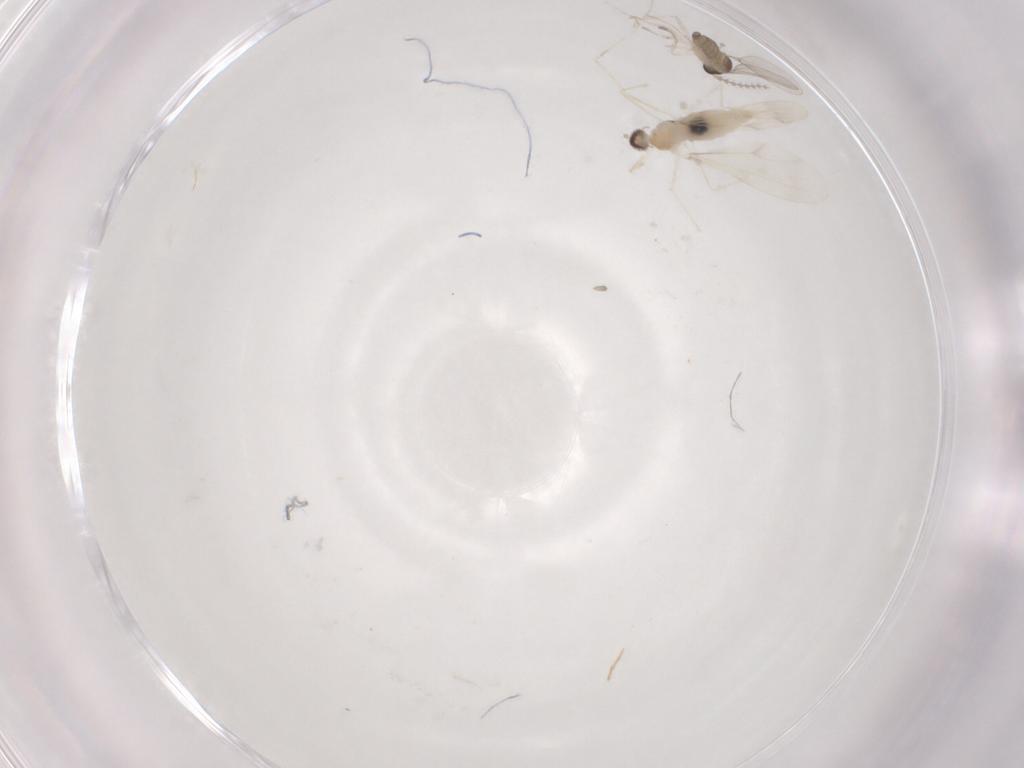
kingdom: Animalia
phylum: Arthropoda
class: Insecta
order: Diptera
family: Cecidomyiidae
